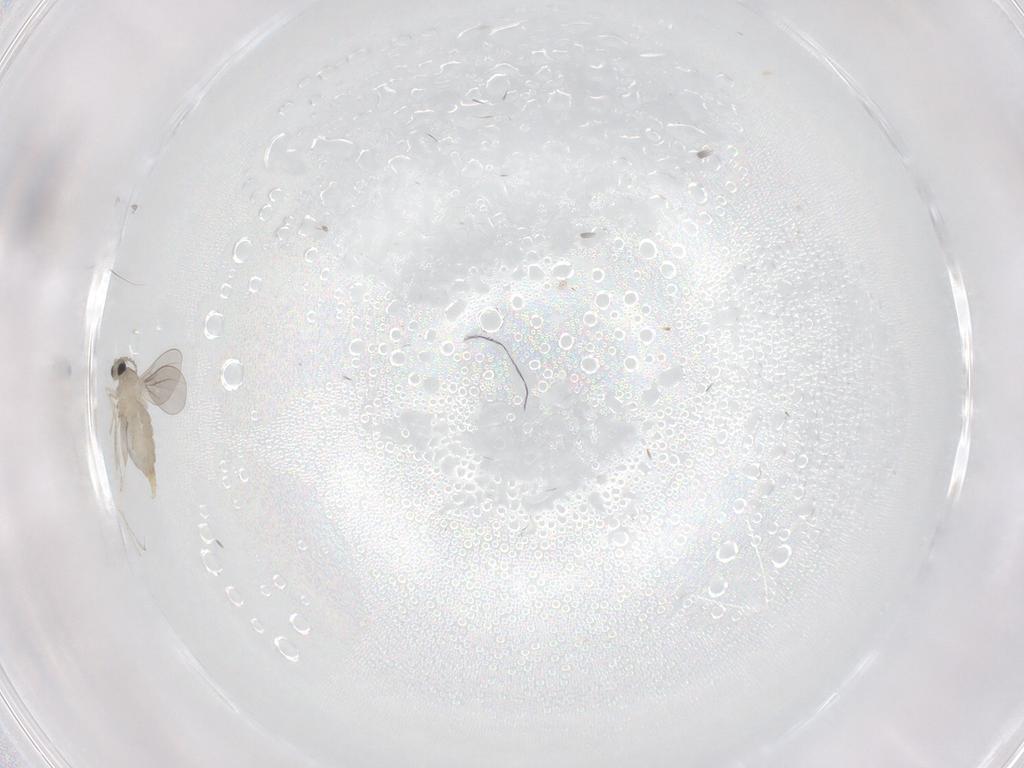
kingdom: Animalia
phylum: Arthropoda
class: Insecta
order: Diptera
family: Cecidomyiidae
